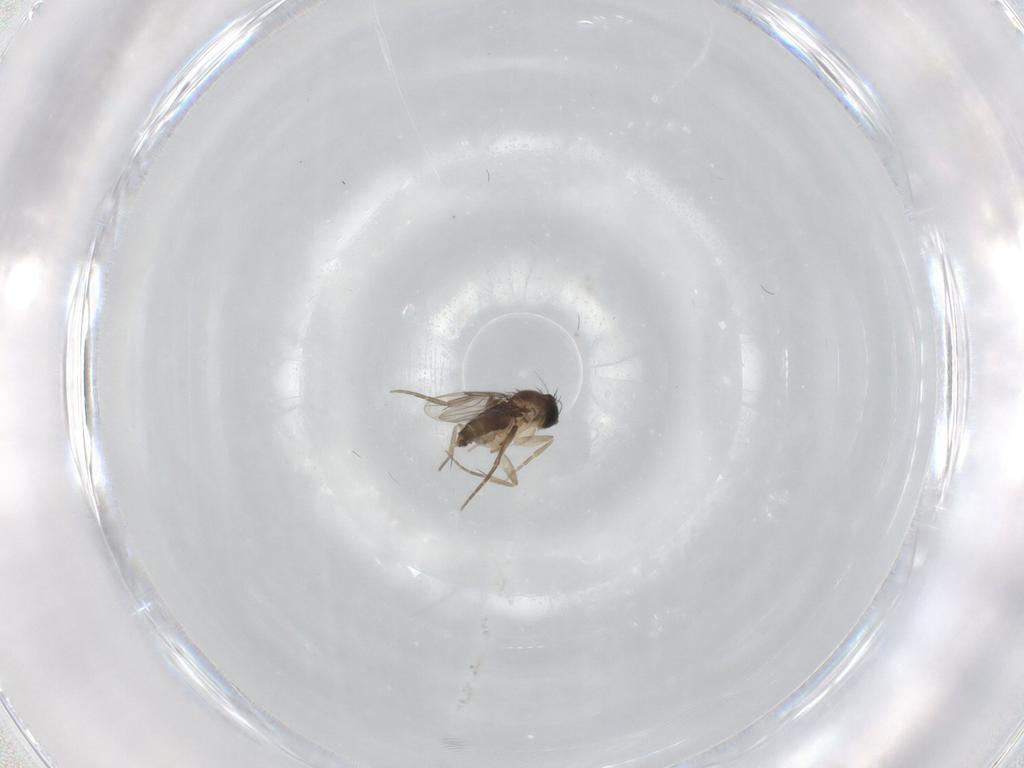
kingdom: Animalia
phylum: Arthropoda
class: Insecta
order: Diptera
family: Phoridae
